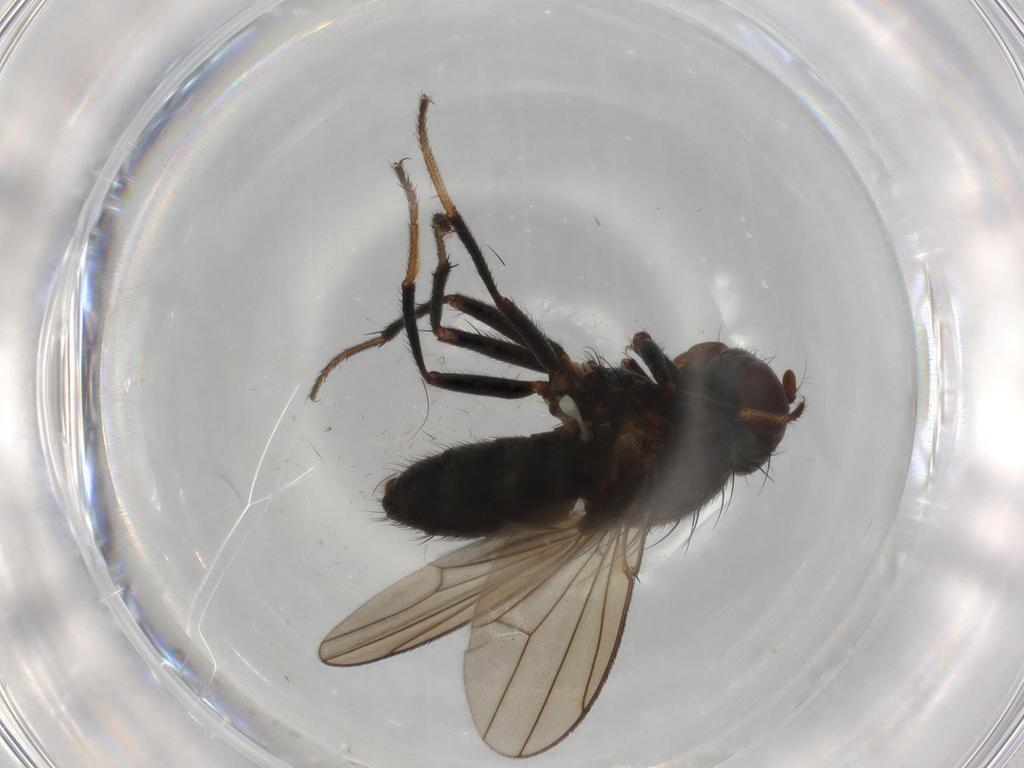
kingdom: Animalia
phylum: Arthropoda
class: Insecta
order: Diptera
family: Ephydridae
